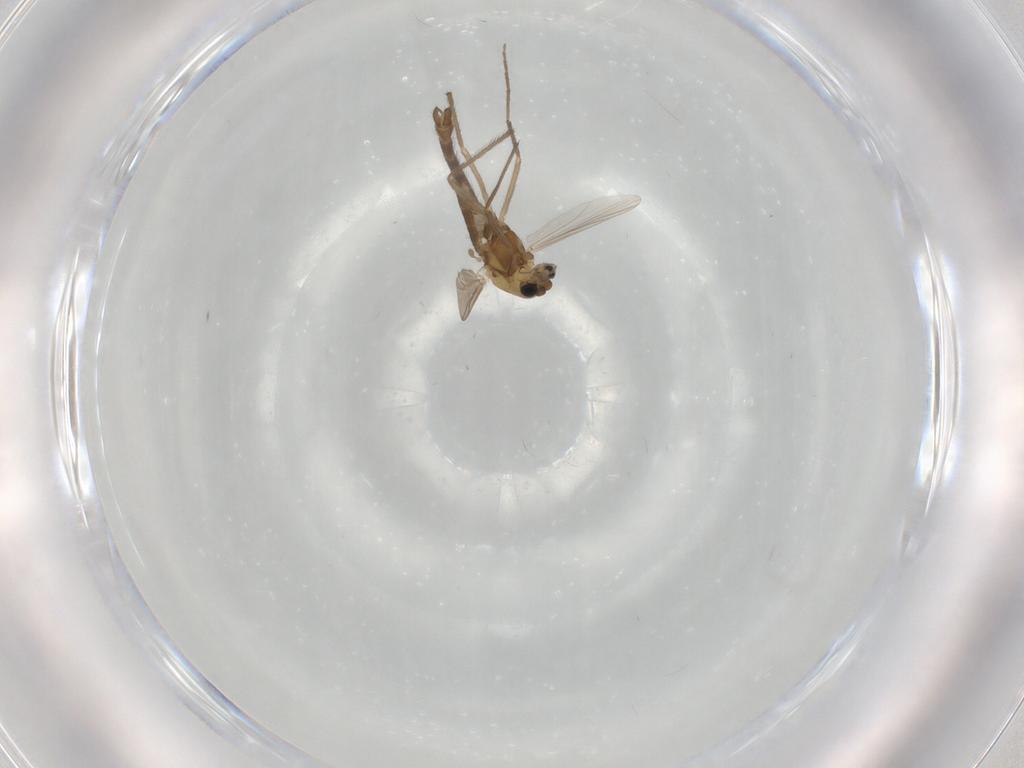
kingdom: Animalia
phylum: Arthropoda
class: Insecta
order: Diptera
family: Chironomidae
